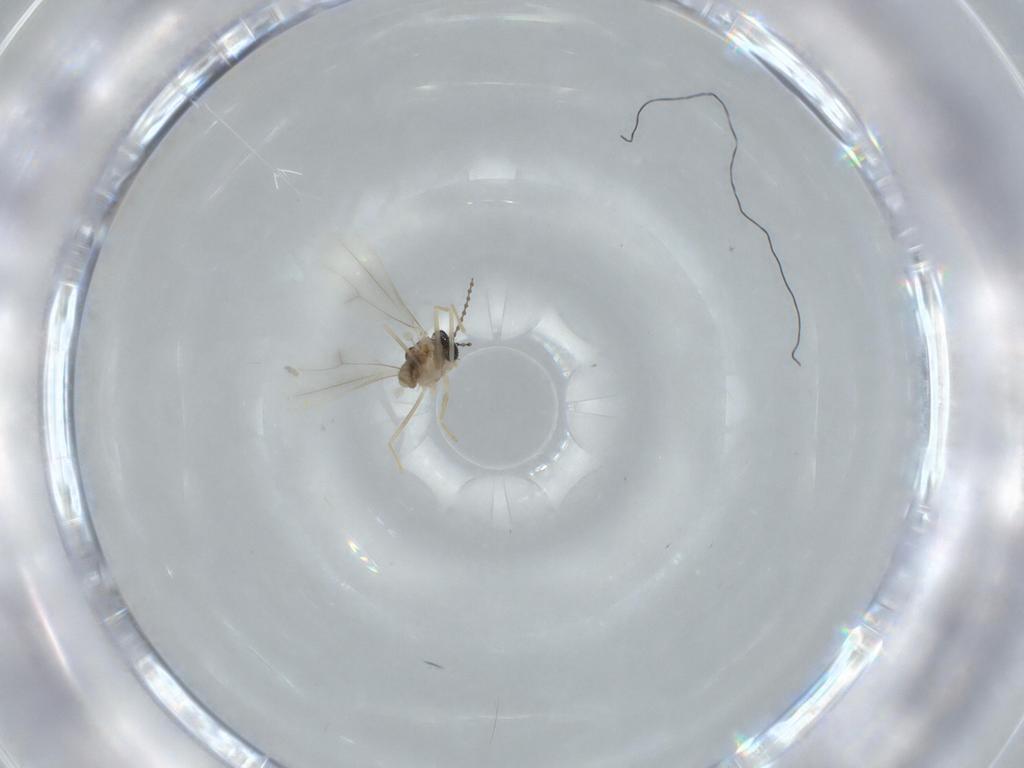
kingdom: Animalia
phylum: Arthropoda
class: Insecta
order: Diptera
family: Cecidomyiidae
